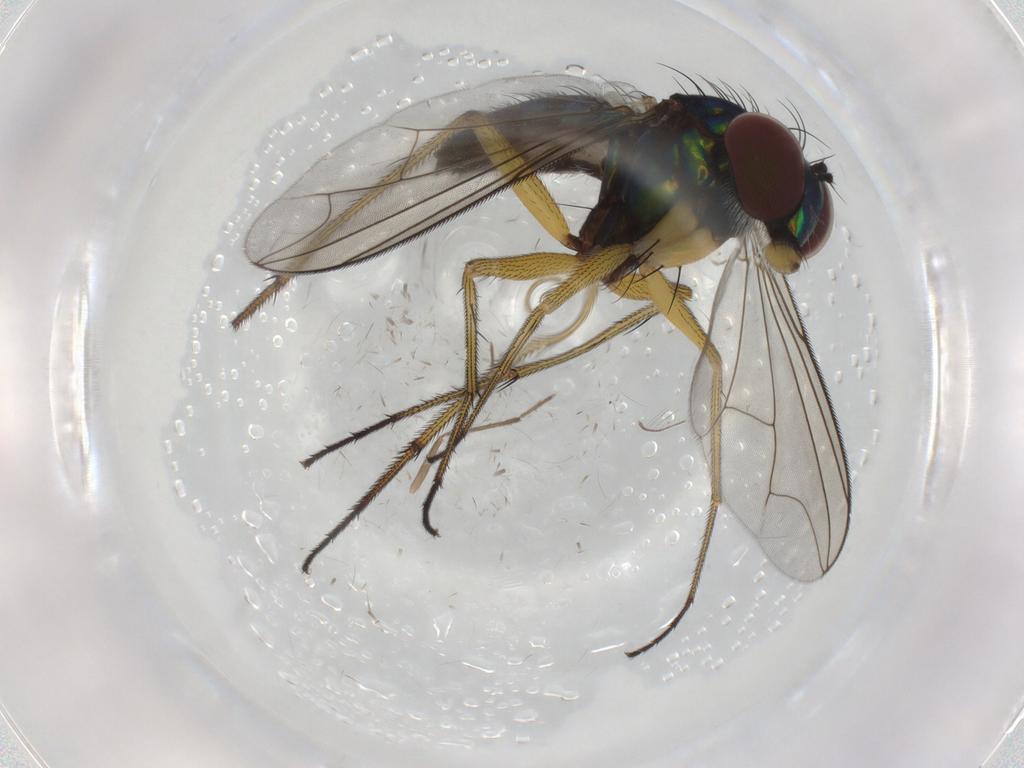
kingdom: Animalia
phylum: Arthropoda
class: Insecta
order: Diptera
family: Dolichopodidae
